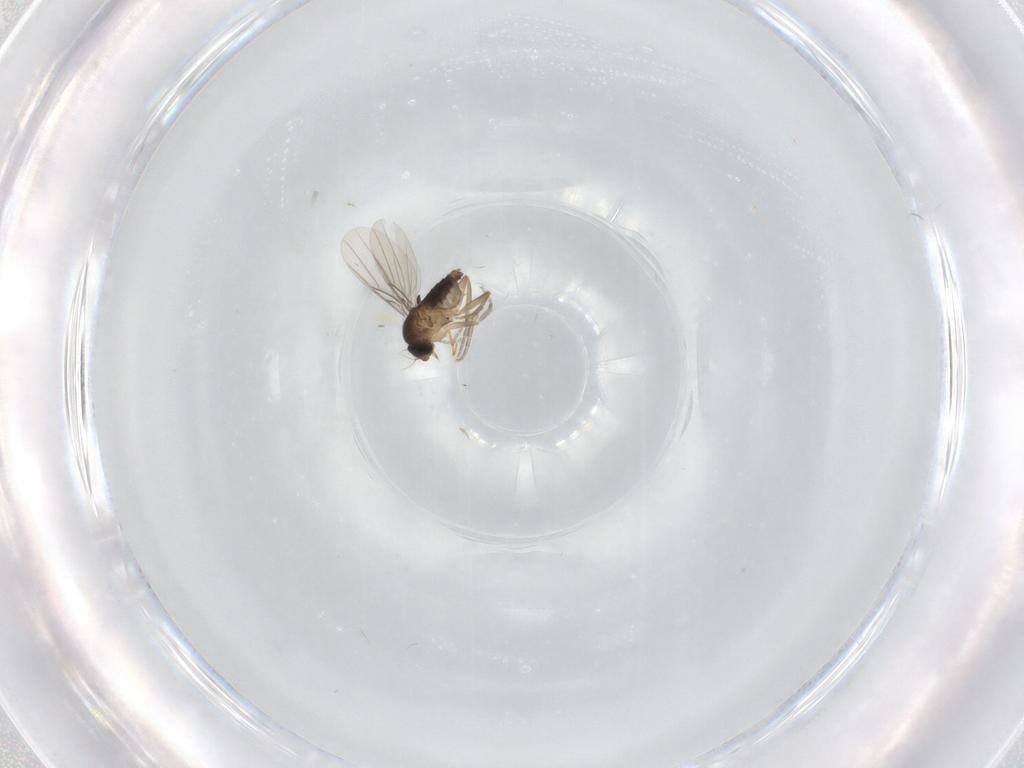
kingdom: Animalia
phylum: Arthropoda
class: Insecta
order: Diptera
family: Phoridae
